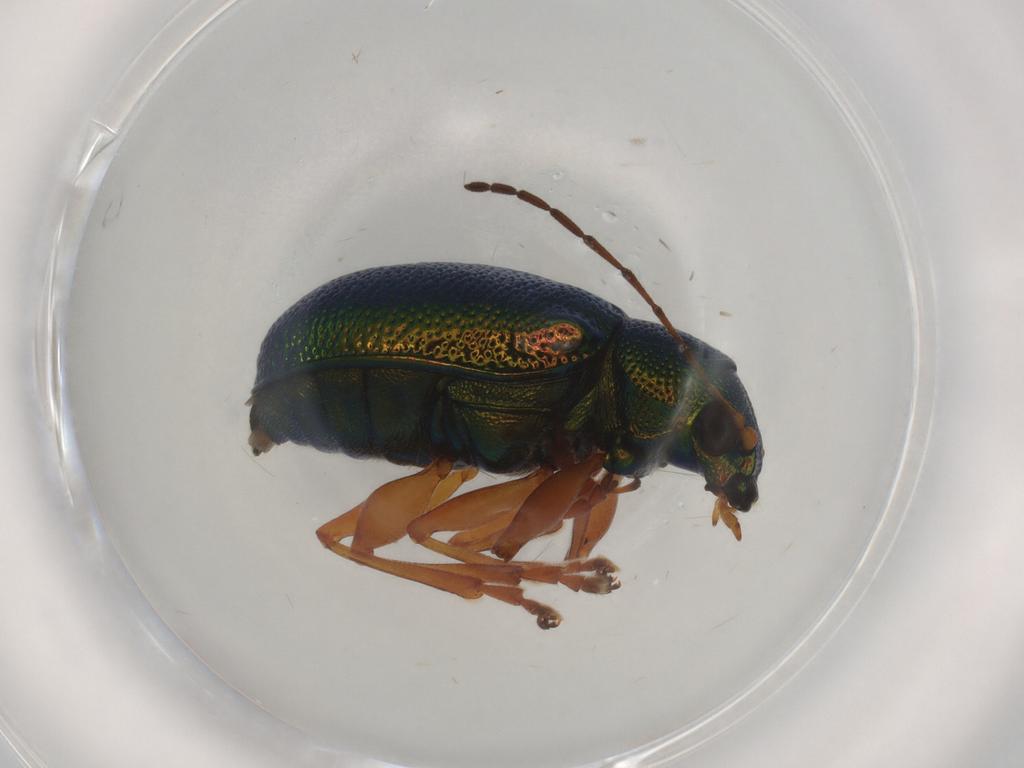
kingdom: Animalia
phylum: Arthropoda
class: Insecta
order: Coleoptera
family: Chrysomelidae
